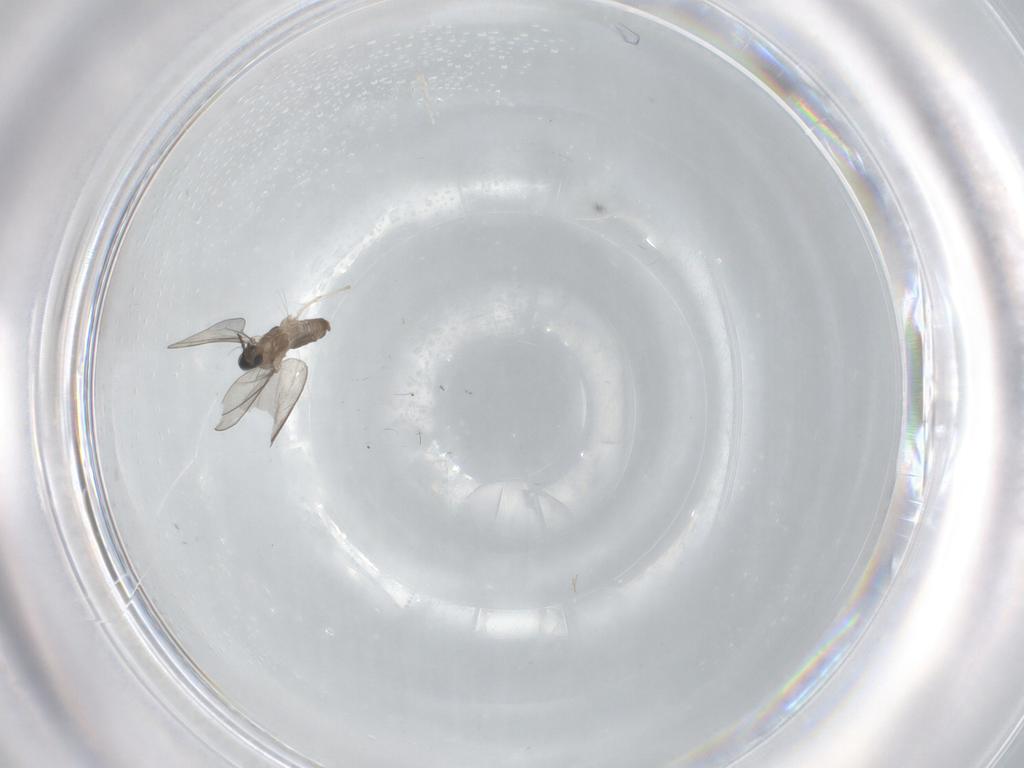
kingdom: Animalia
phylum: Arthropoda
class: Insecta
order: Diptera
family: Cecidomyiidae
